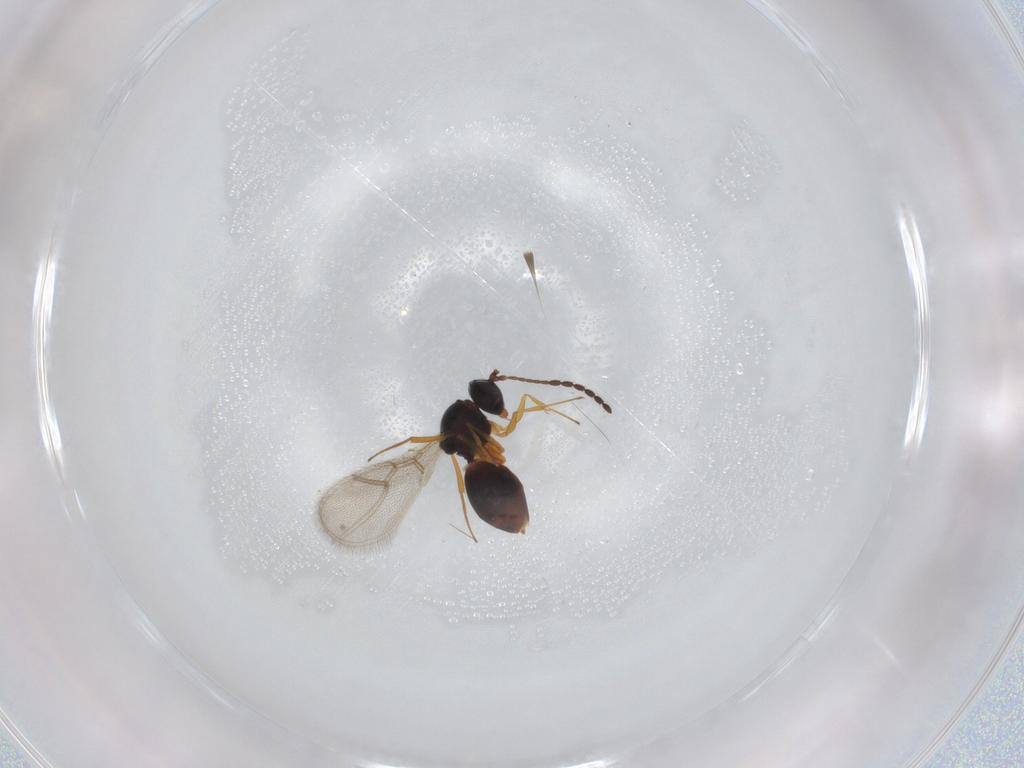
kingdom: Animalia
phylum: Arthropoda
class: Insecta
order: Hymenoptera
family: Figitidae
